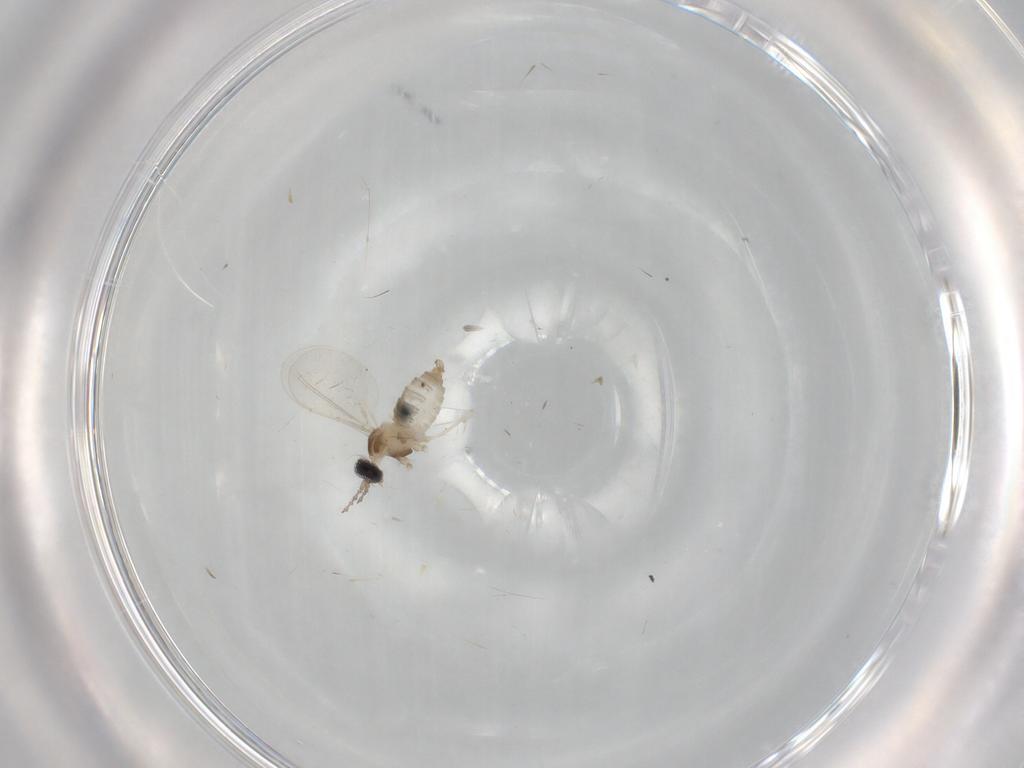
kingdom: Animalia
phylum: Arthropoda
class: Insecta
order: Diptera
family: Cecidomyiidae
